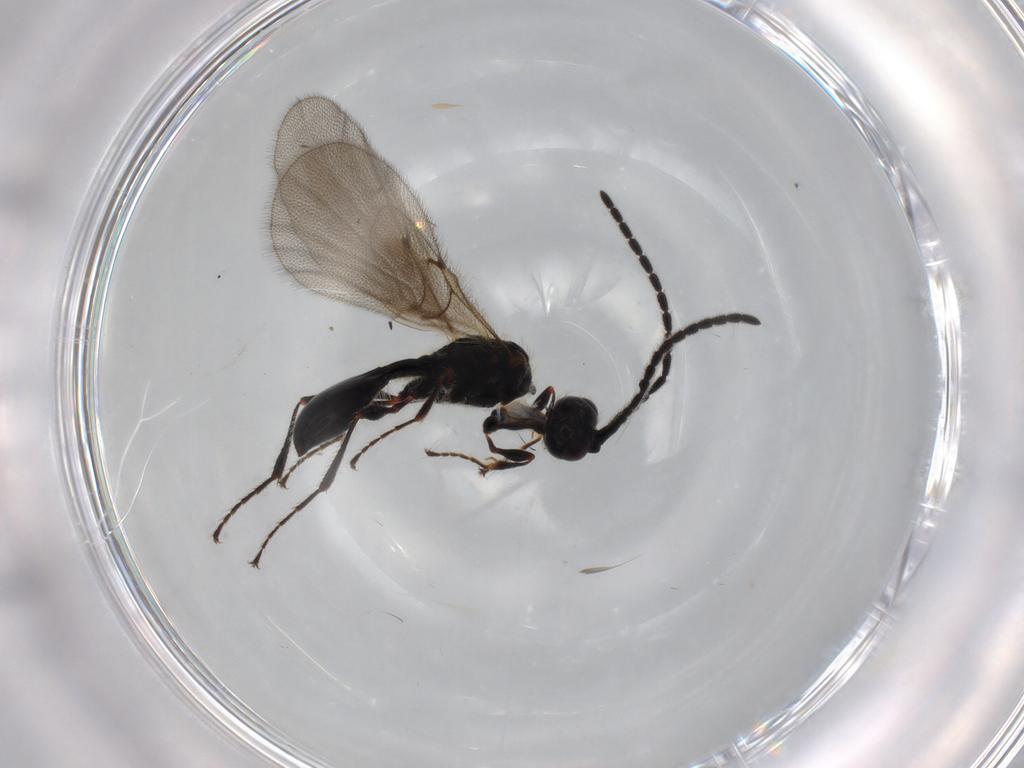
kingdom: Animalia
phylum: Arthropoda
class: Insecta
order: Hymenoptera
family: Diapriidae
